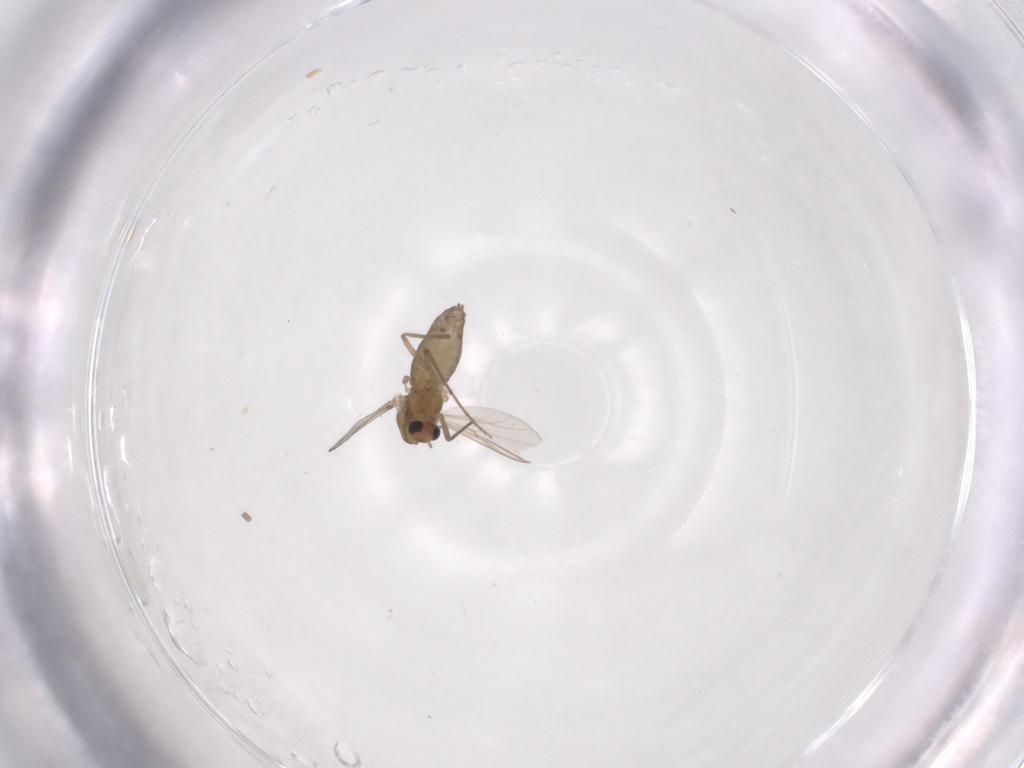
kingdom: Animalia
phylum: Arthropoda
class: Insecta
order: Diptera
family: Chironomidae
